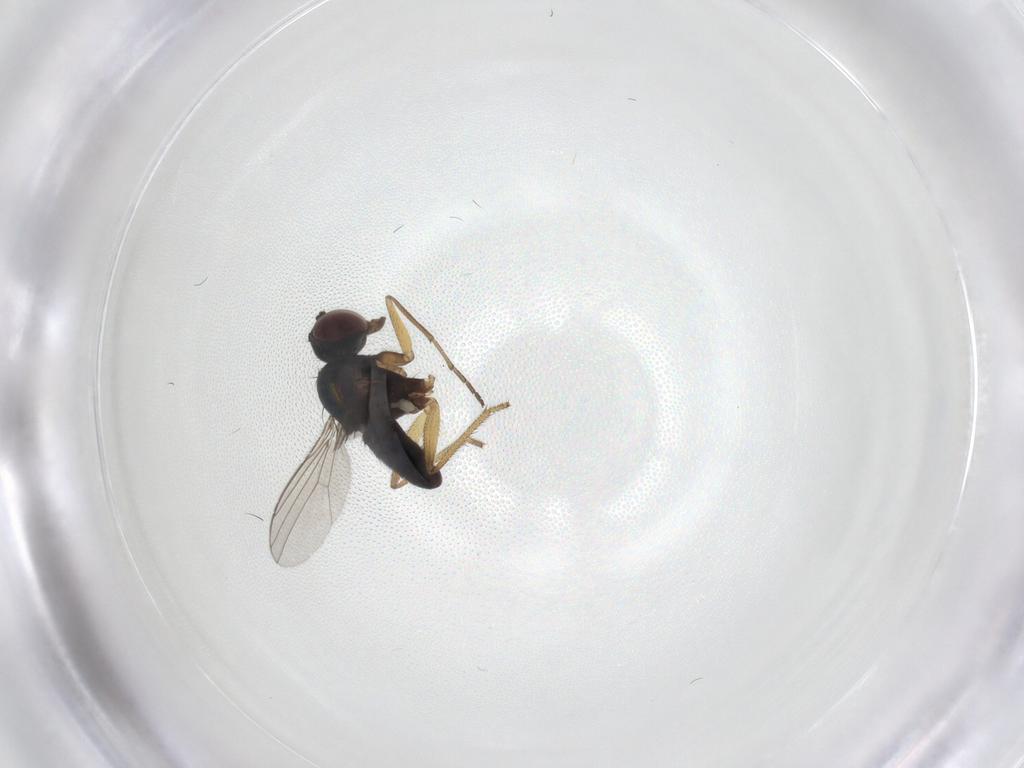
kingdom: Animalia
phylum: Arthropoda
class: Insecta
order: Diptera
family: Dolichopodidae
